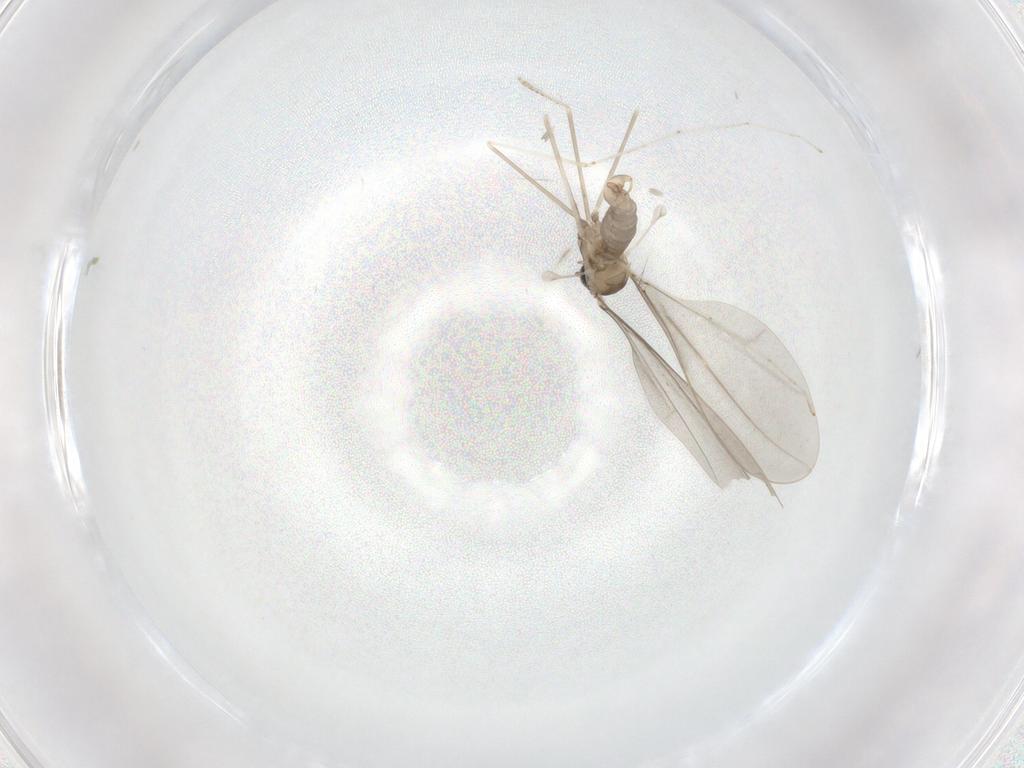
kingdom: Animalia
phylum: Arthropoda
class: Insecta
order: Diptera
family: Cecidomyiidae
